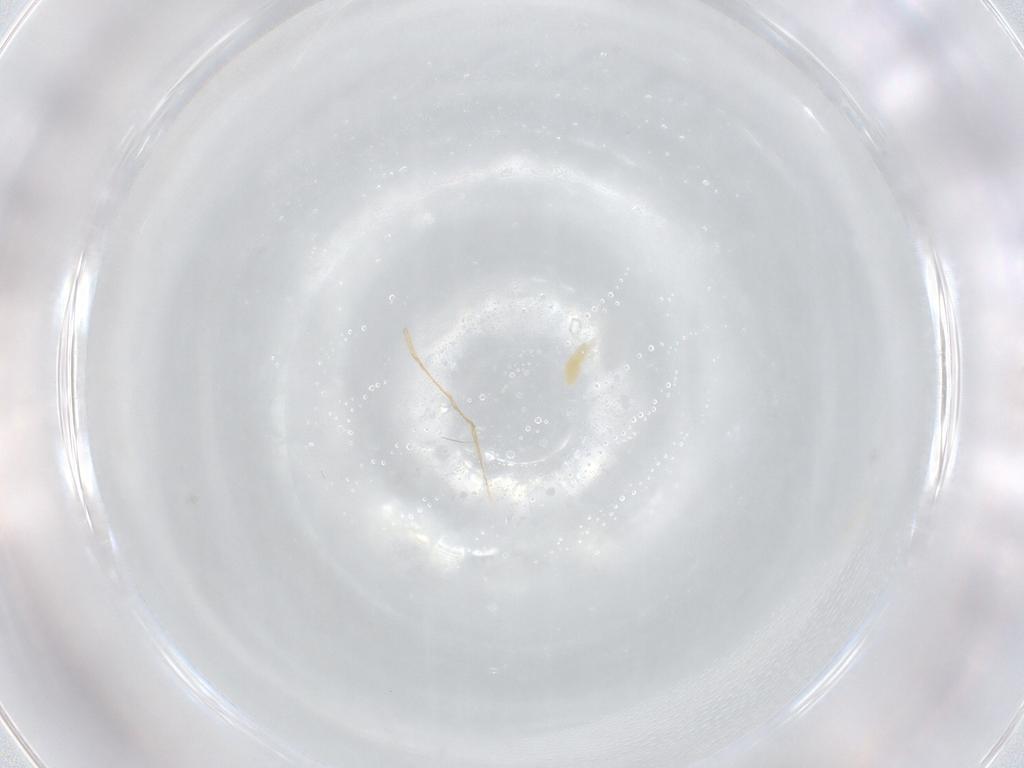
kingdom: Animalia
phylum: Arthropoda
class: Arachnida
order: Trombidiformes
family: Eupodidae
